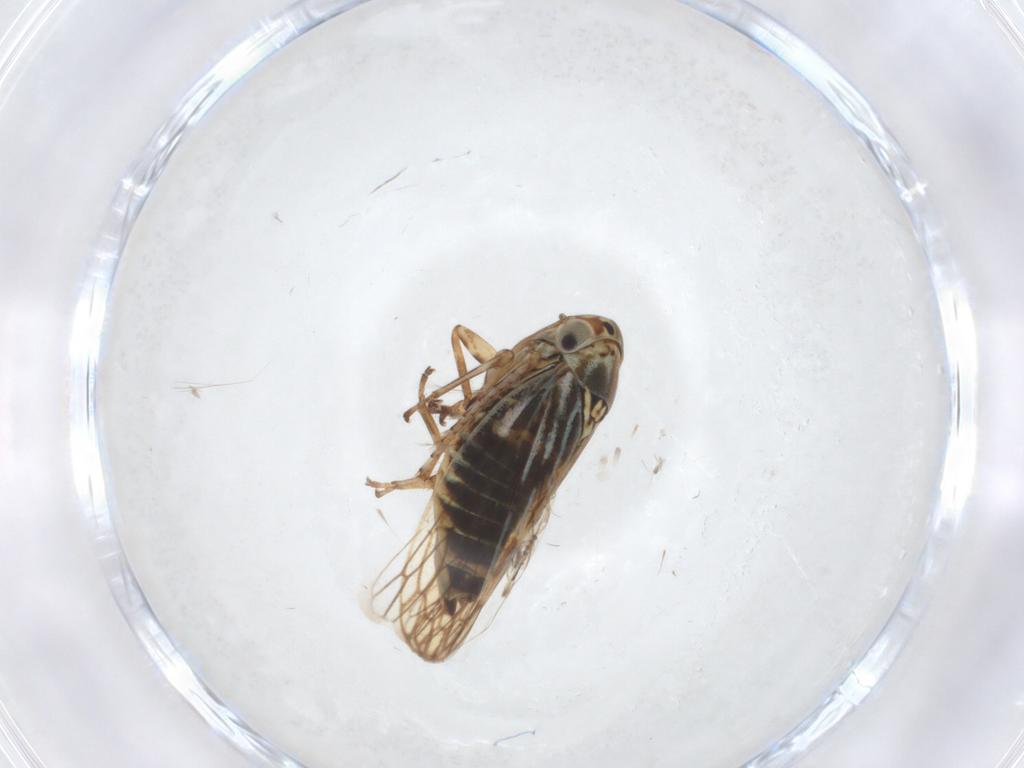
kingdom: Animalia
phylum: Arthropoda
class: Insecta
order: Hemiptera
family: Cicadellidae
